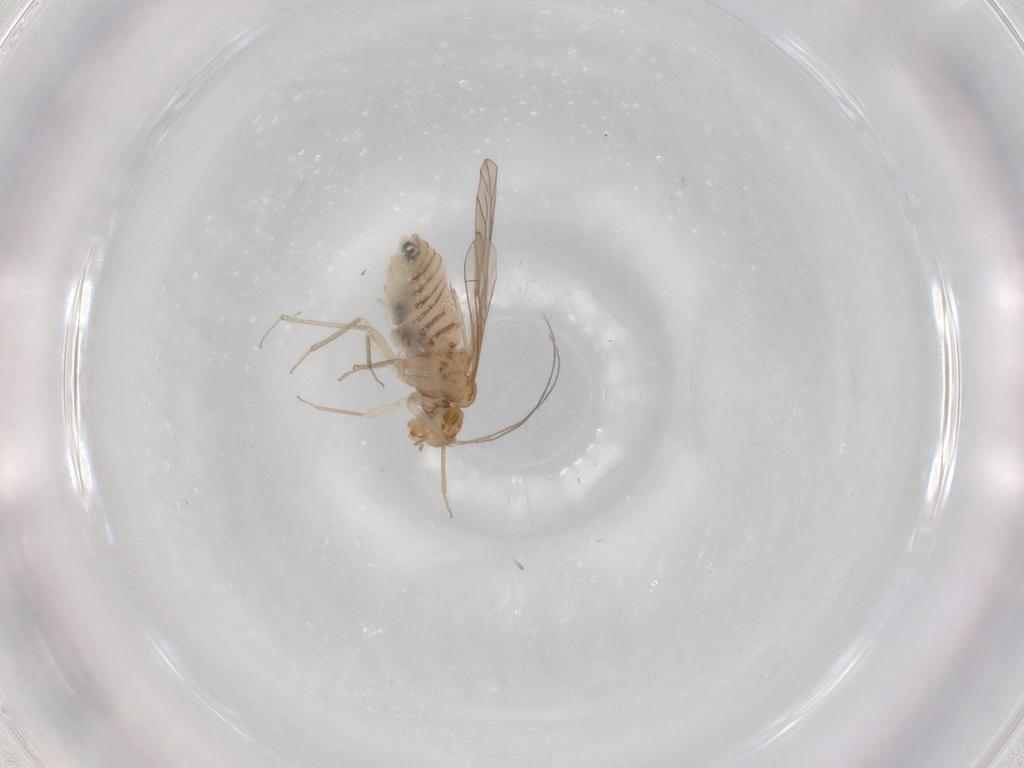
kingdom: Animalia
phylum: Arthropoda
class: Insecta
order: Psocodea
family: Lachesillidae
